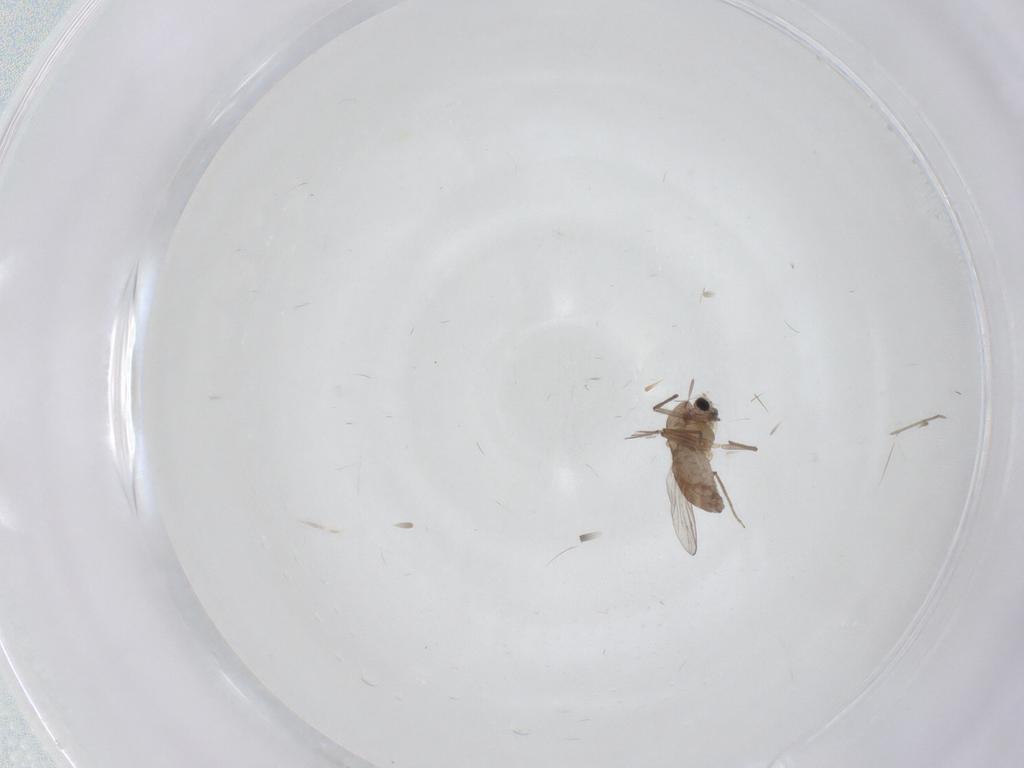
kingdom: Animalia
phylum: Arthropoda
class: Insecta
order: Diptera
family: Chironomidae
